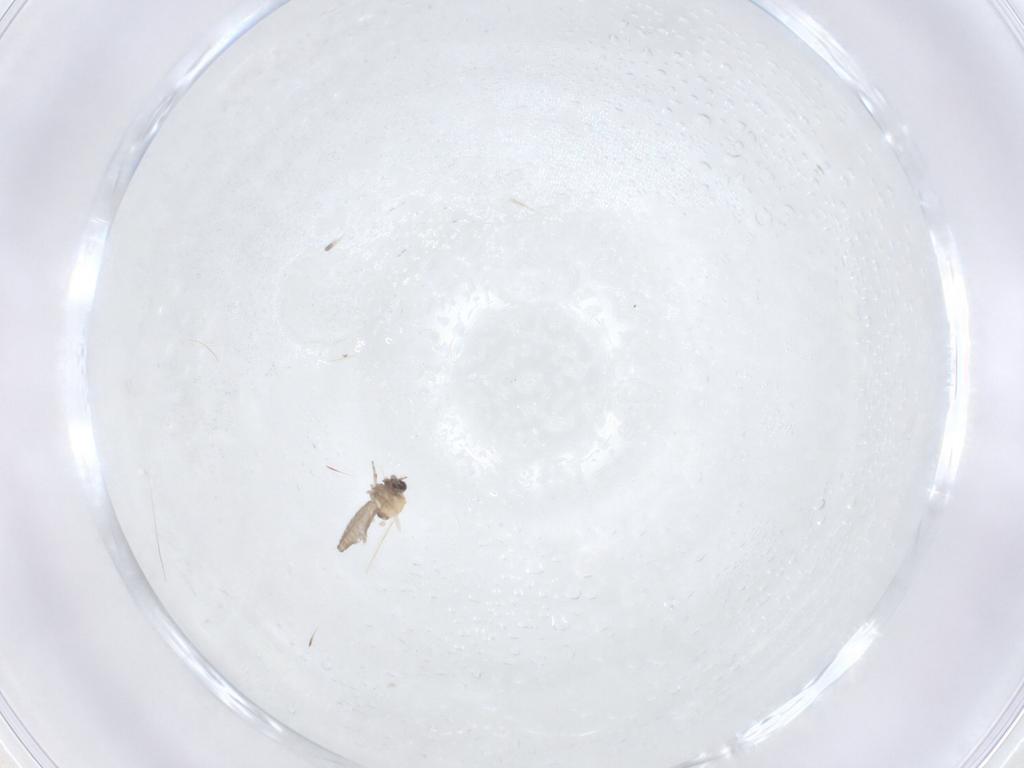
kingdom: Animalia
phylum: Arthropoda
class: Insecta
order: Diptera
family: Ceratopogonidae
